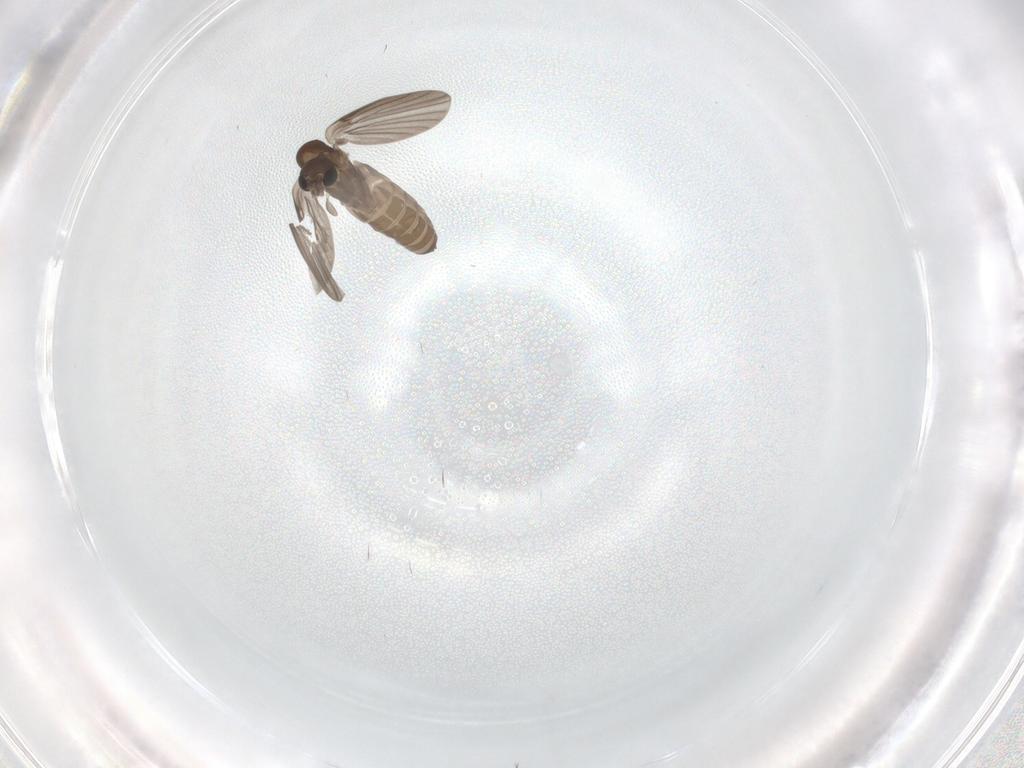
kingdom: Animalia
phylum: Arthropoda
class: Insecta
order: Diptera
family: Psychodidae
